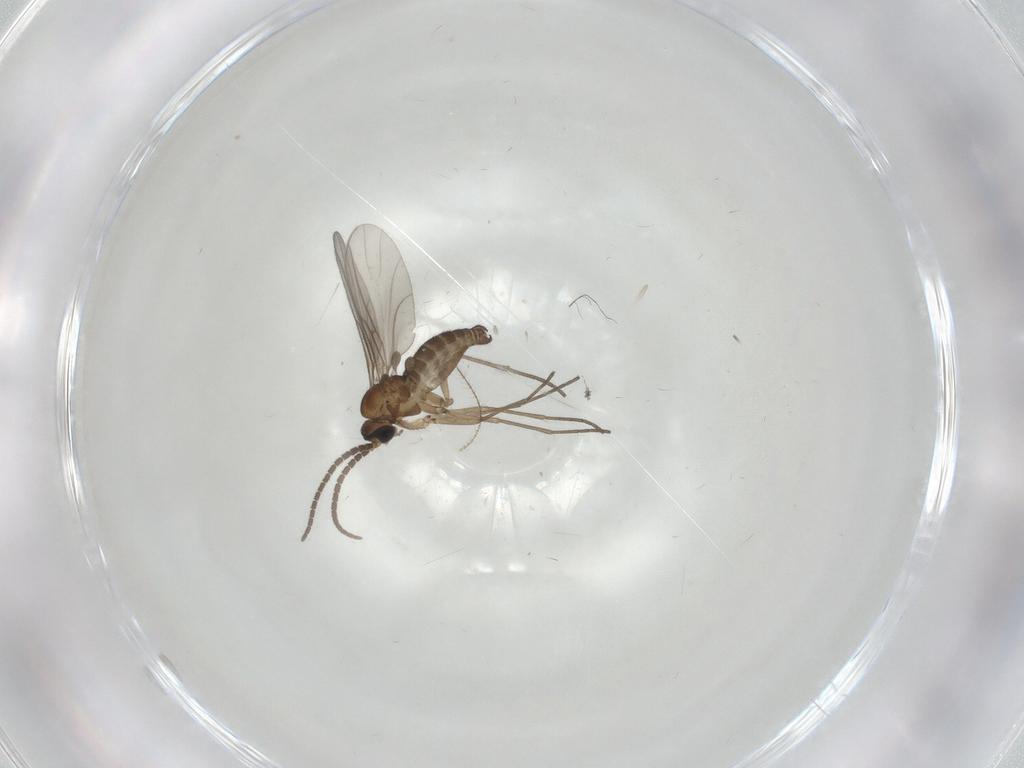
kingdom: Animalia
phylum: Arthropoda
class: Insecta
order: Diptera
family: Sciaridae
